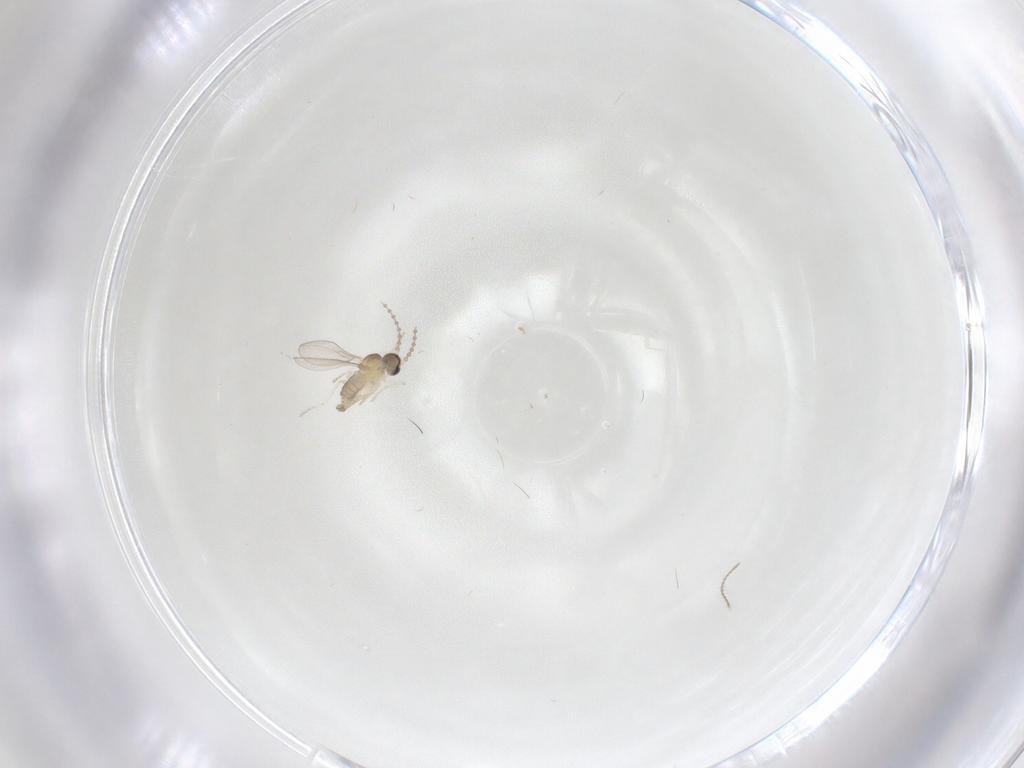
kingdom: Animalia
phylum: Arthropoda
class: Insecta
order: Diptera
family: Cecidomyiidae
